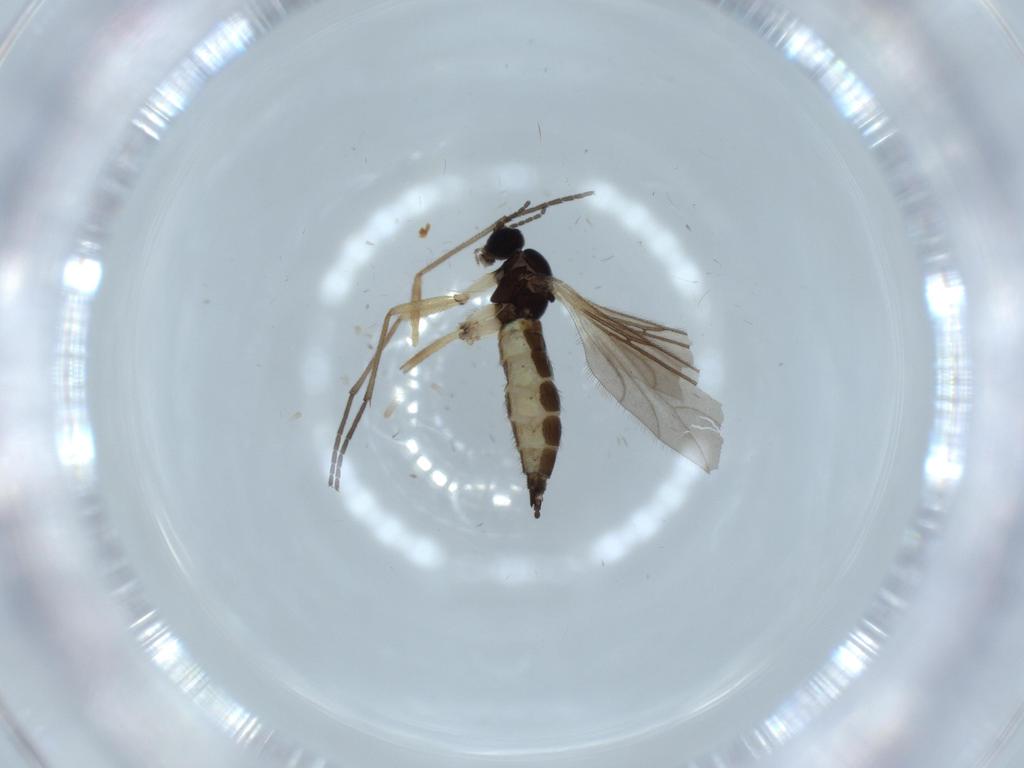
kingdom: Animalia
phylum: Arthropoda
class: Insecta
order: Diptera
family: Sciaridae
